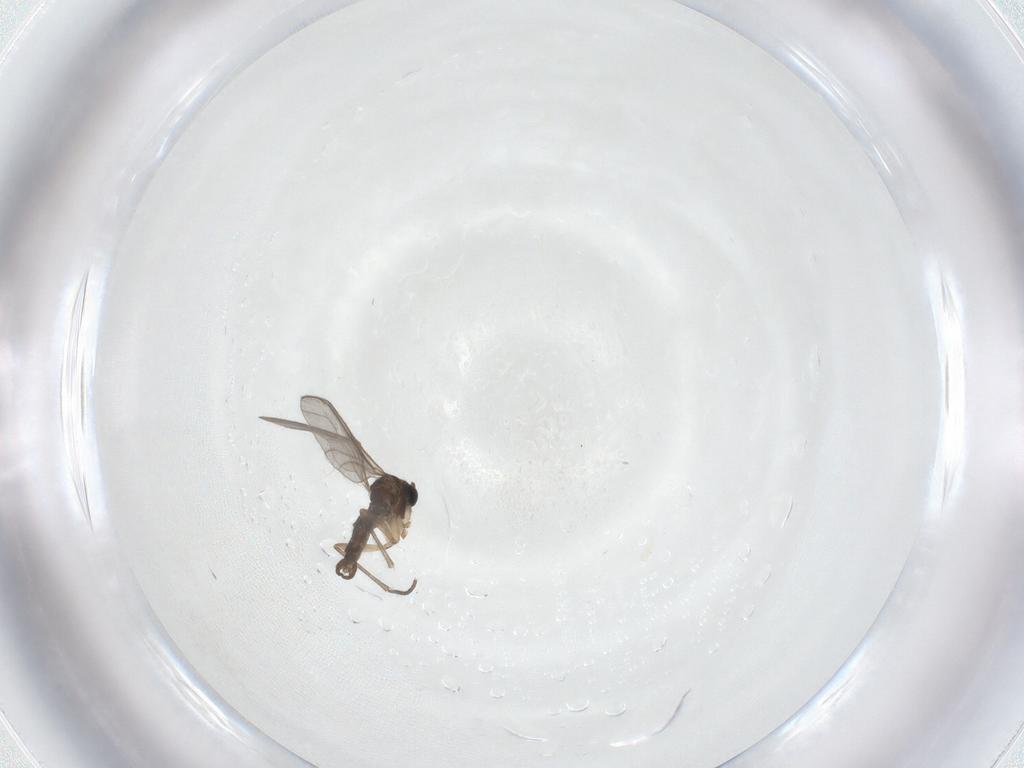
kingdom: Animalia
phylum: Arthropoda
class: Insecta
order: Diptera
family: Sciaridae
